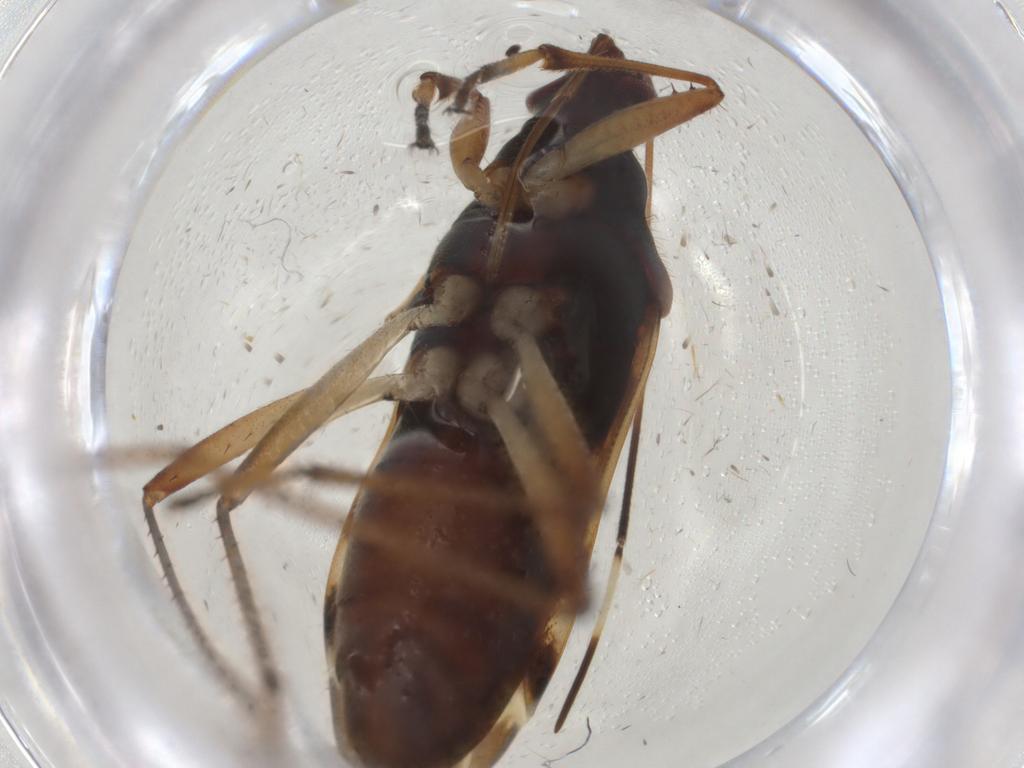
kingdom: Animalia
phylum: Arthropoda
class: Insecta
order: Hemiptera
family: Rhyparochromidae
